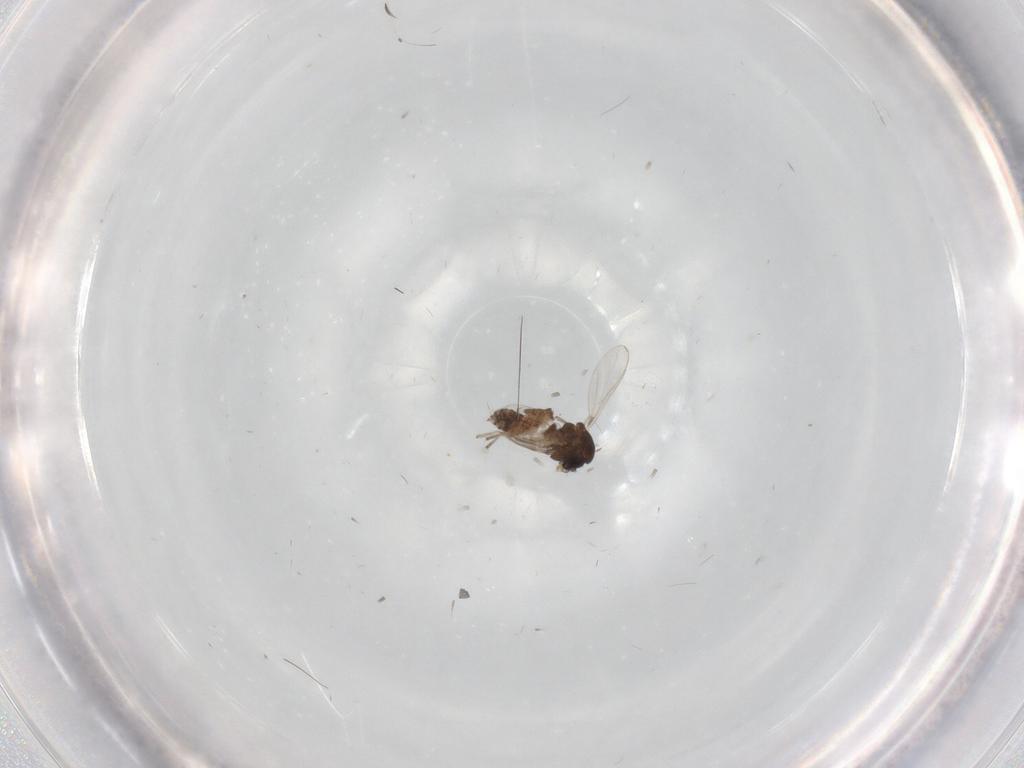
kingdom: Animalia
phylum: Arthropoda
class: Insecta
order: Diptera
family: Chironomidae
